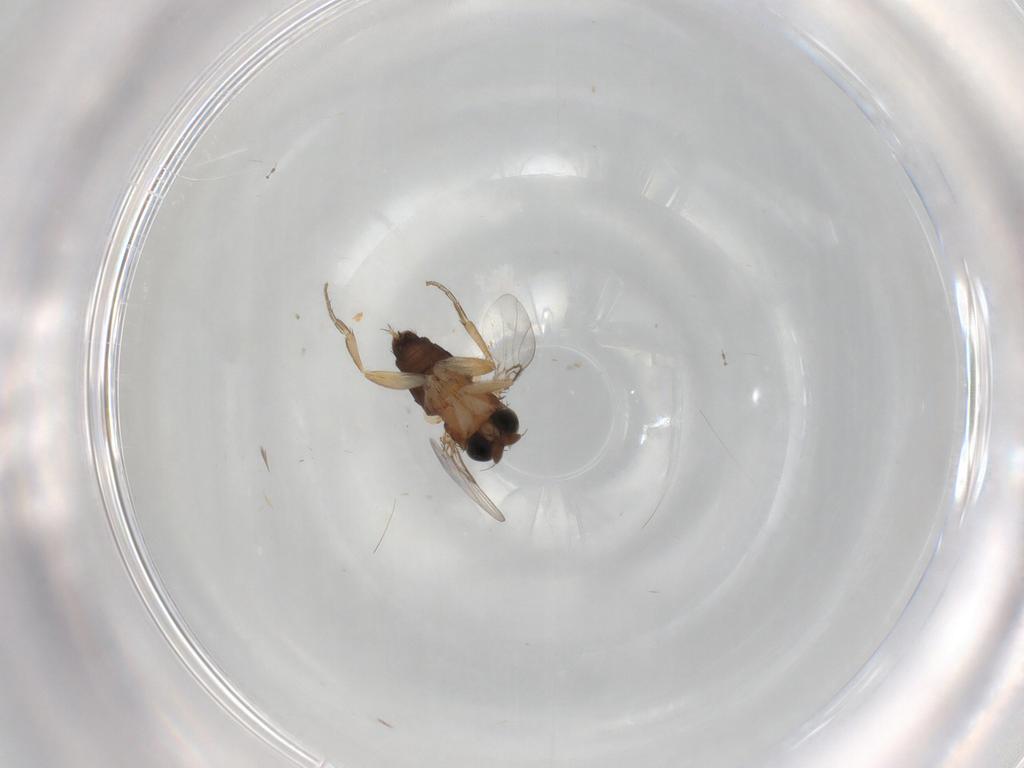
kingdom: Animalia
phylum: Arthropoda
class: Insecta
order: Diptera
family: Phoridae
